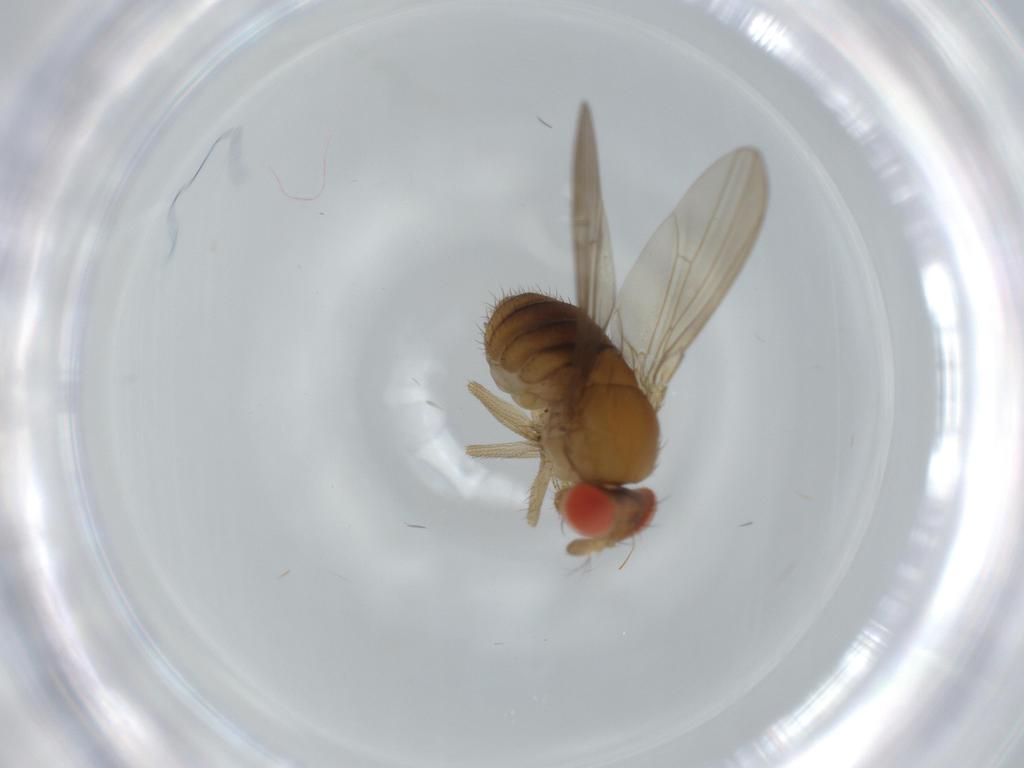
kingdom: Animalia
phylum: Arthropoda
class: Insecta
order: Diptera
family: Drosophilidae
